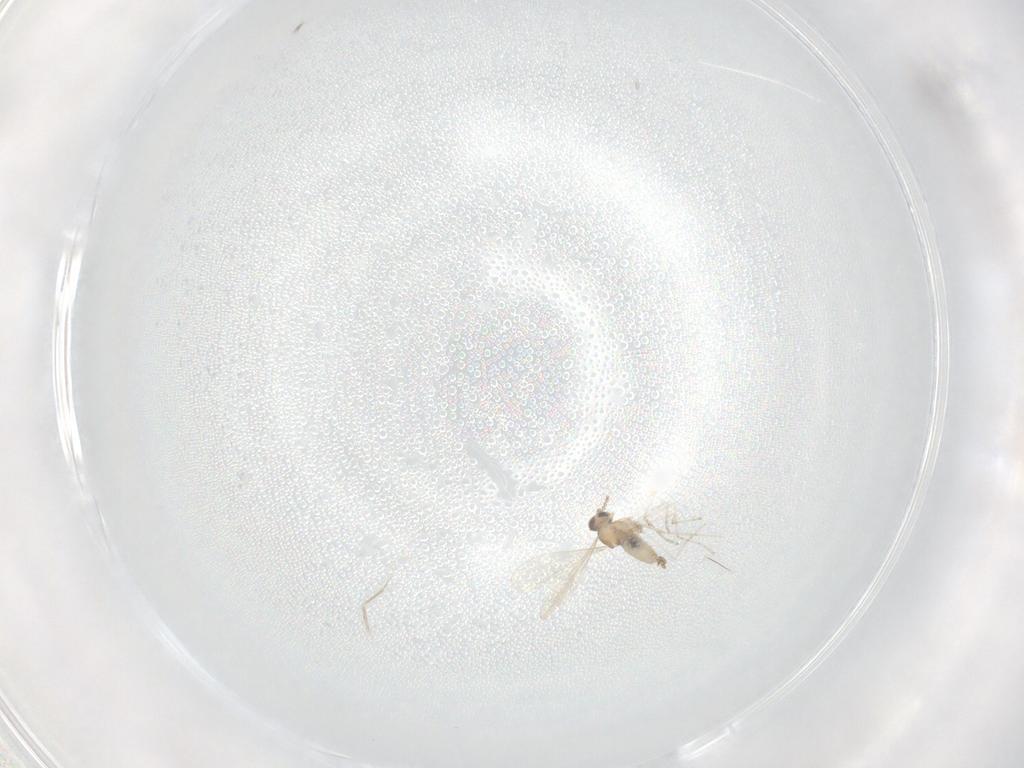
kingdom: Animalia
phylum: Arthropoda
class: Insecta
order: Diptera
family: Cecidomyiidae
